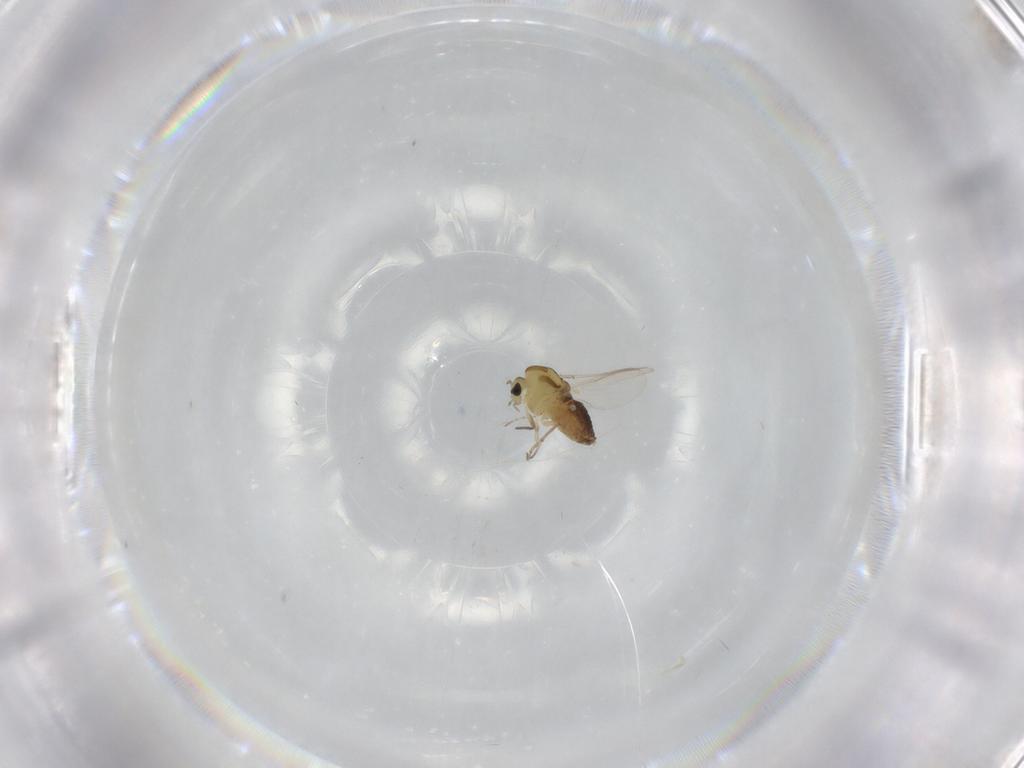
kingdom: Animalia
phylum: Arthropoda
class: Insecta
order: Diptera
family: Chironomidae
